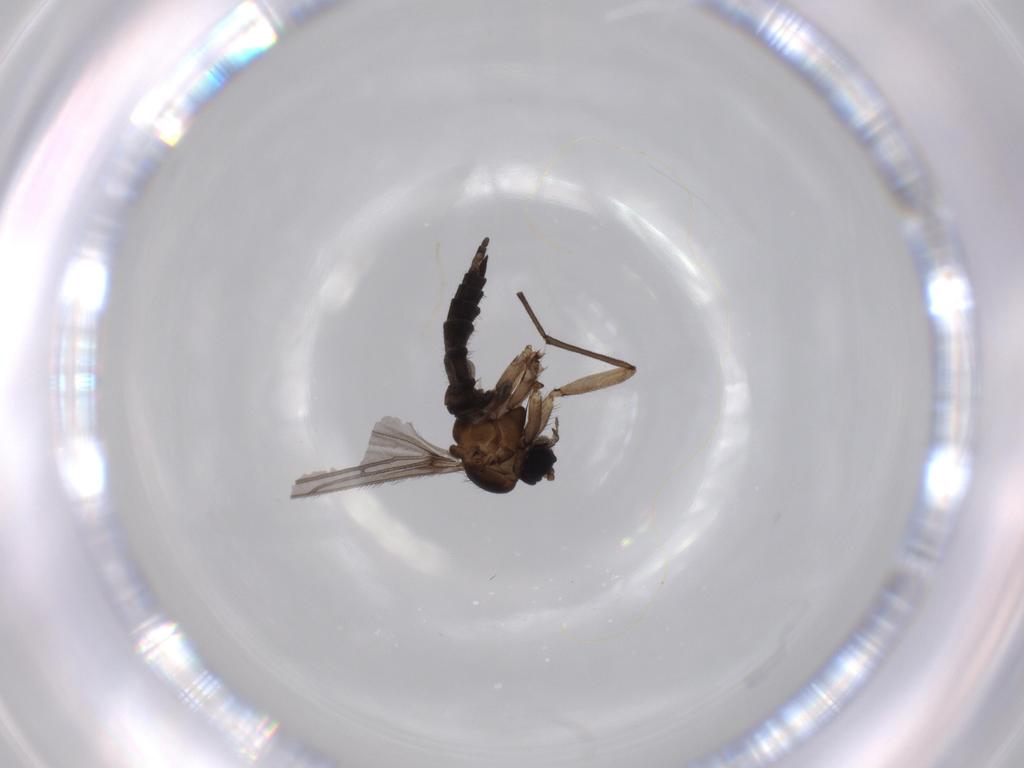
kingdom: Animalia
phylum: Arthropoda
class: Insecta
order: Diptera
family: Sciaridae
